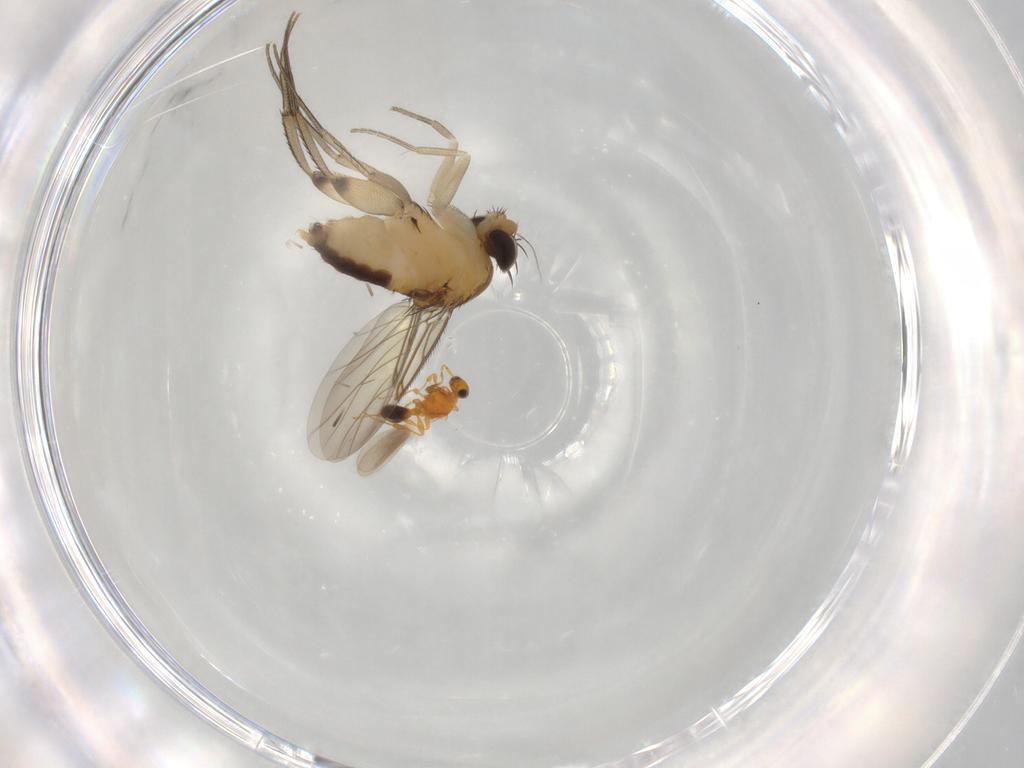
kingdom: Animalia
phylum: Arthropoda
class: Insecta
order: Diptera
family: Phoridae
